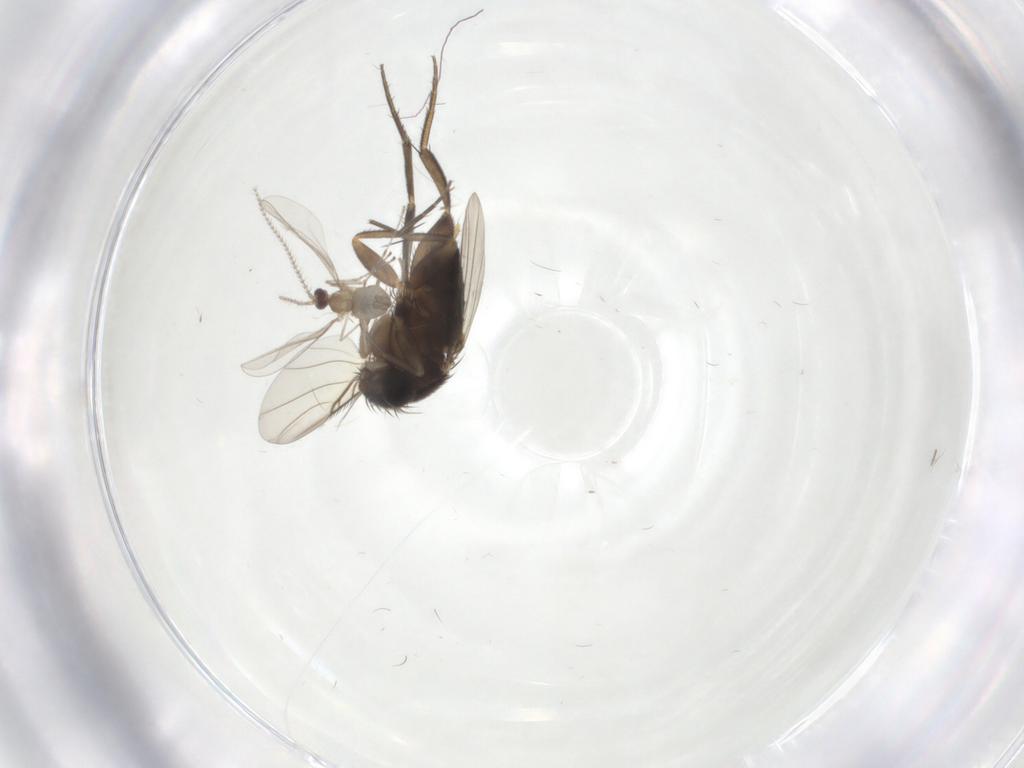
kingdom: Animalia
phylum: Arthropoda
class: Insecta
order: Diptera
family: Phoridae
